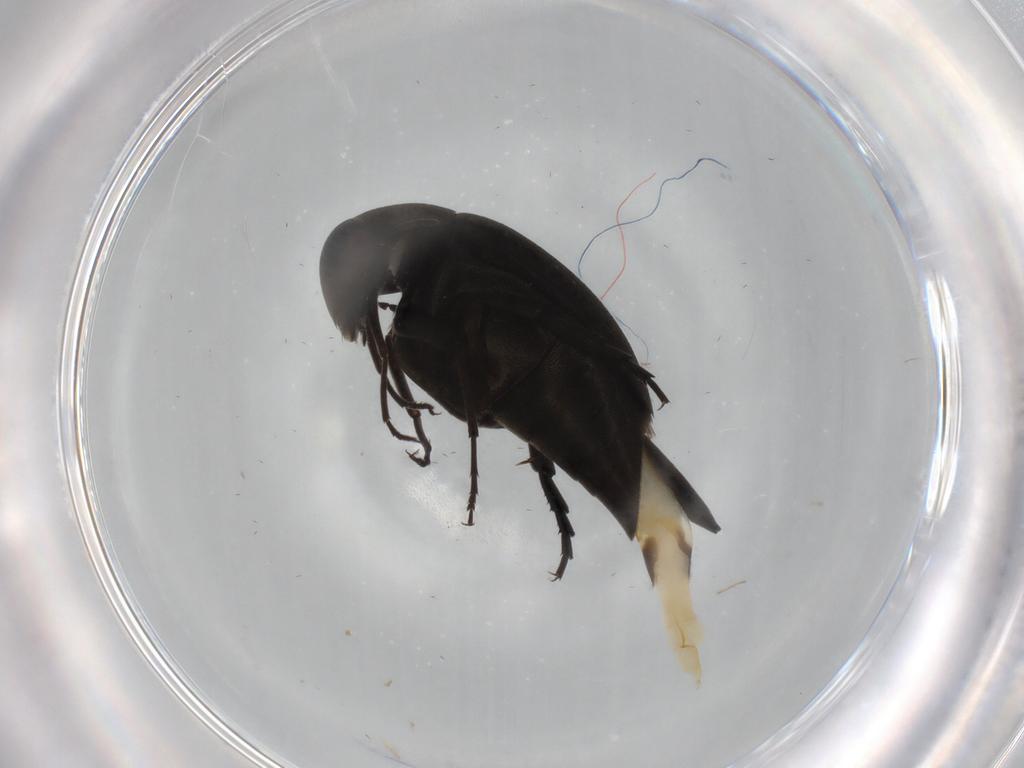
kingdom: Animalia
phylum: Arthropoda
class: Insecta
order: Coleoptera
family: Mordellidae
